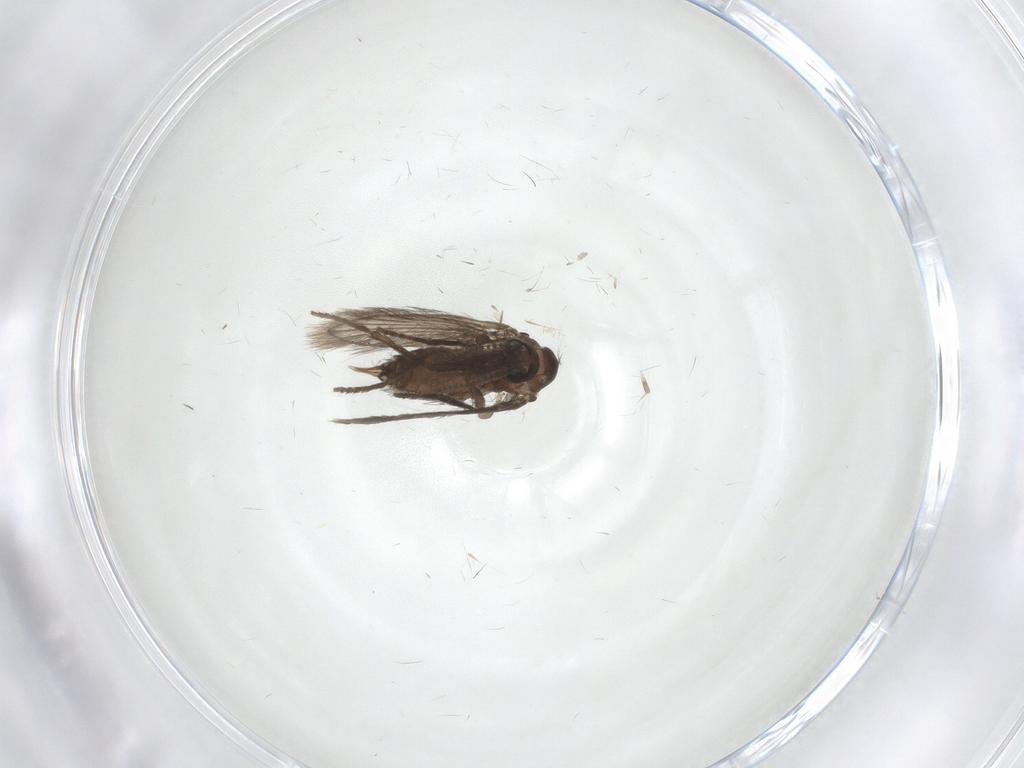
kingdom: Animalia
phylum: Arthropoda
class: Insecta
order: Diptera
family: Psychodidae
